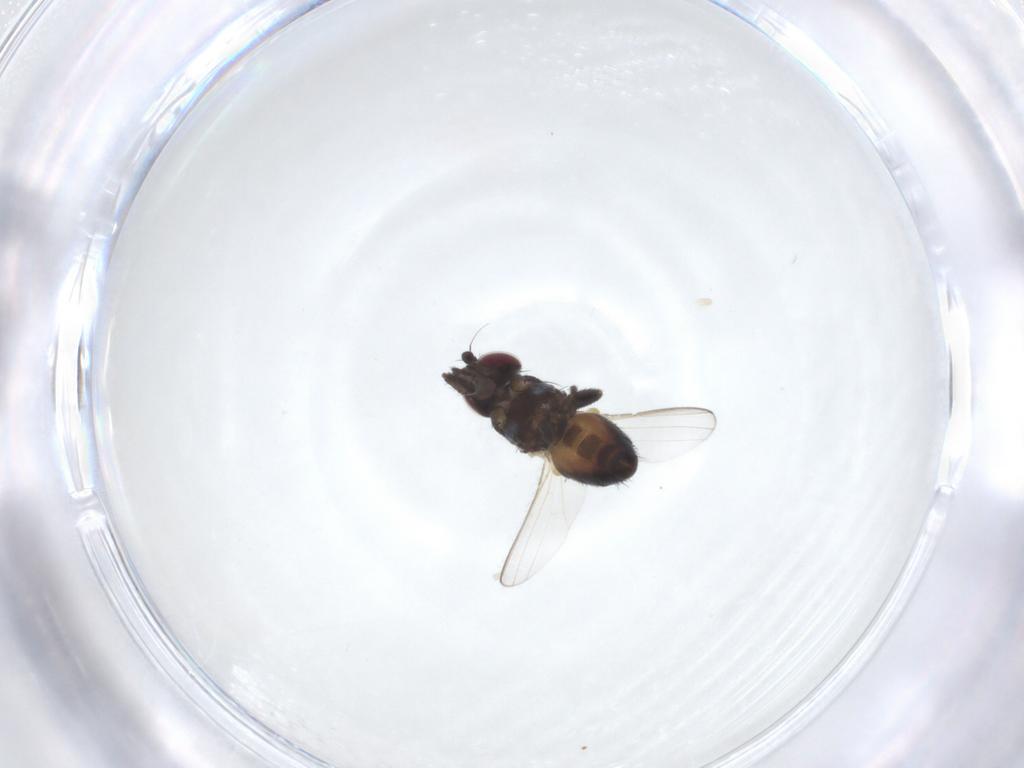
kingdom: Animalia
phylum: Arthropoda
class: Insecta
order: Diptera
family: Milichiidae
